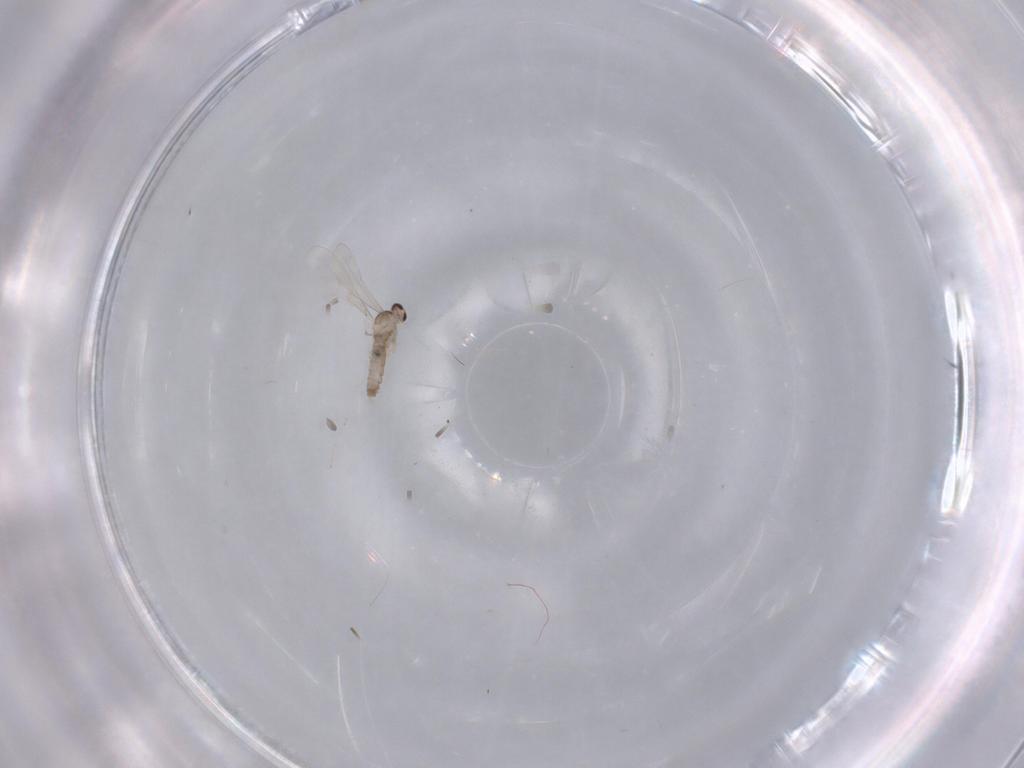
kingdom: Animalia
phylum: Arthropoda
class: Insecta
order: Diptera
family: Cecidomyiidae
